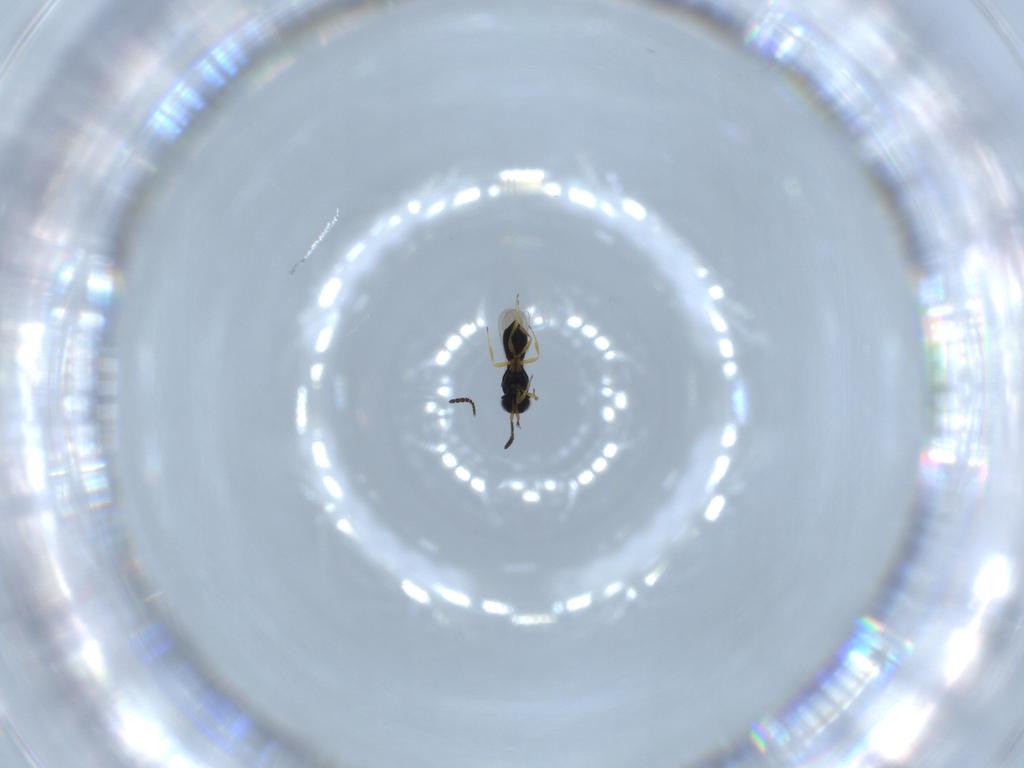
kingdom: Animalia
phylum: Arthropoda
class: Insecta
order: Hymenoptera
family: Scelionidae
